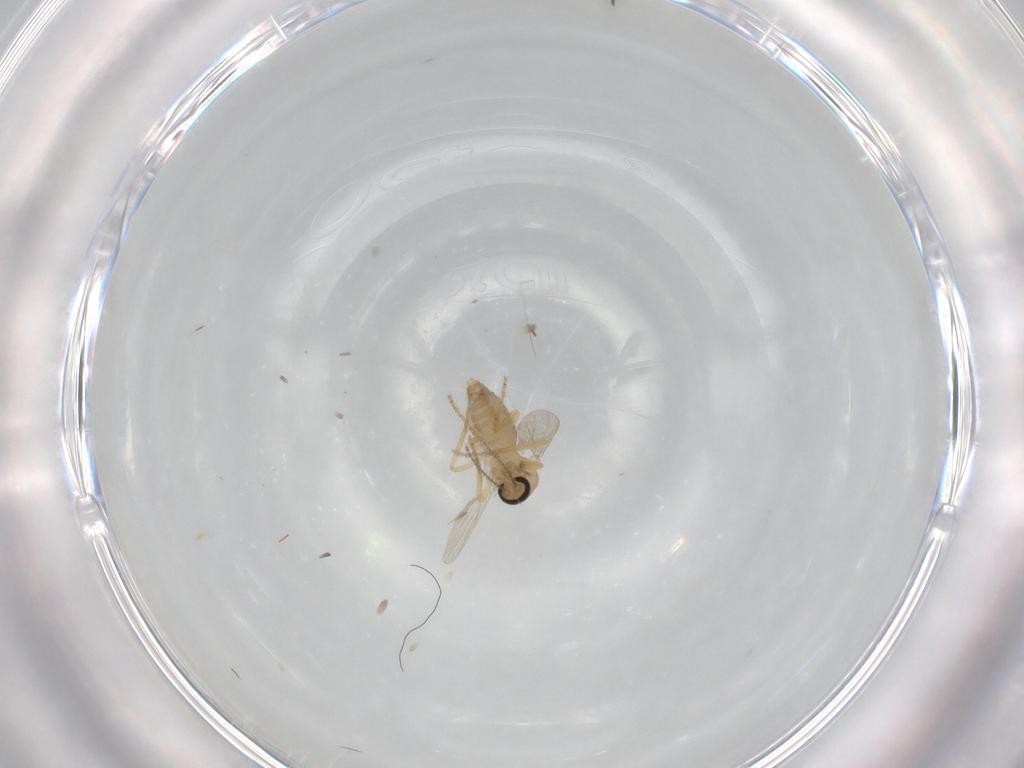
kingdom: Animalia
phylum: Arthropoda
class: Insecta
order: Diptera
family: Ceratopogonidae
